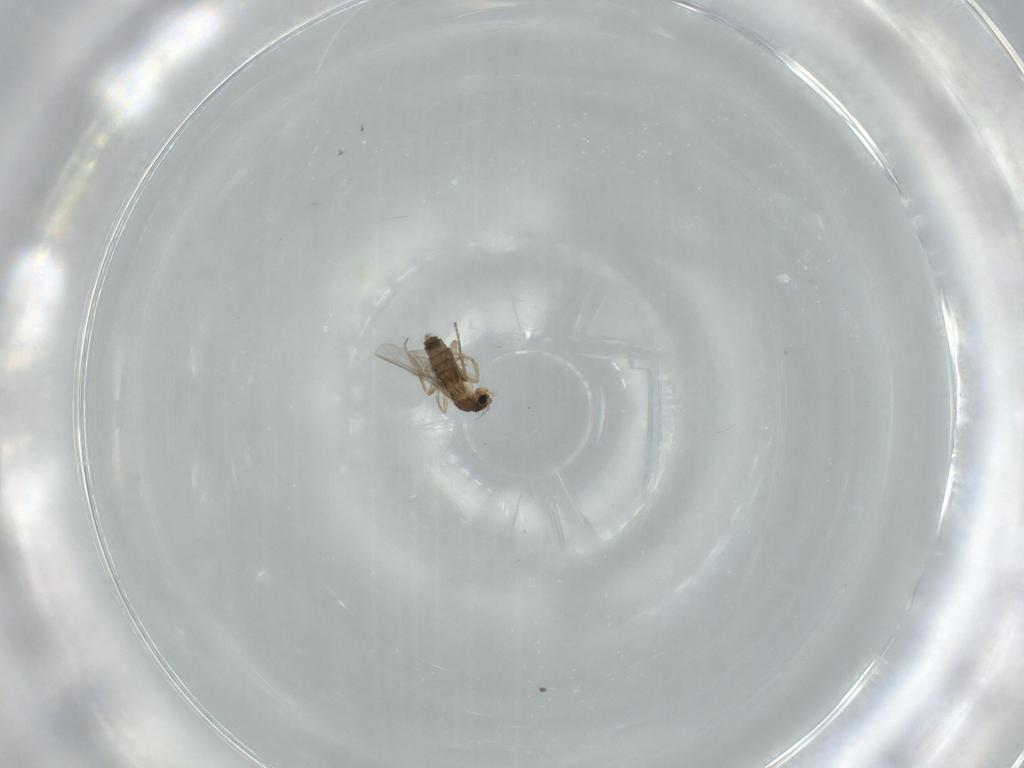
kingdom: Animalia
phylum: Arthropoda
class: Insecta
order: Diptera
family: Phoridae
